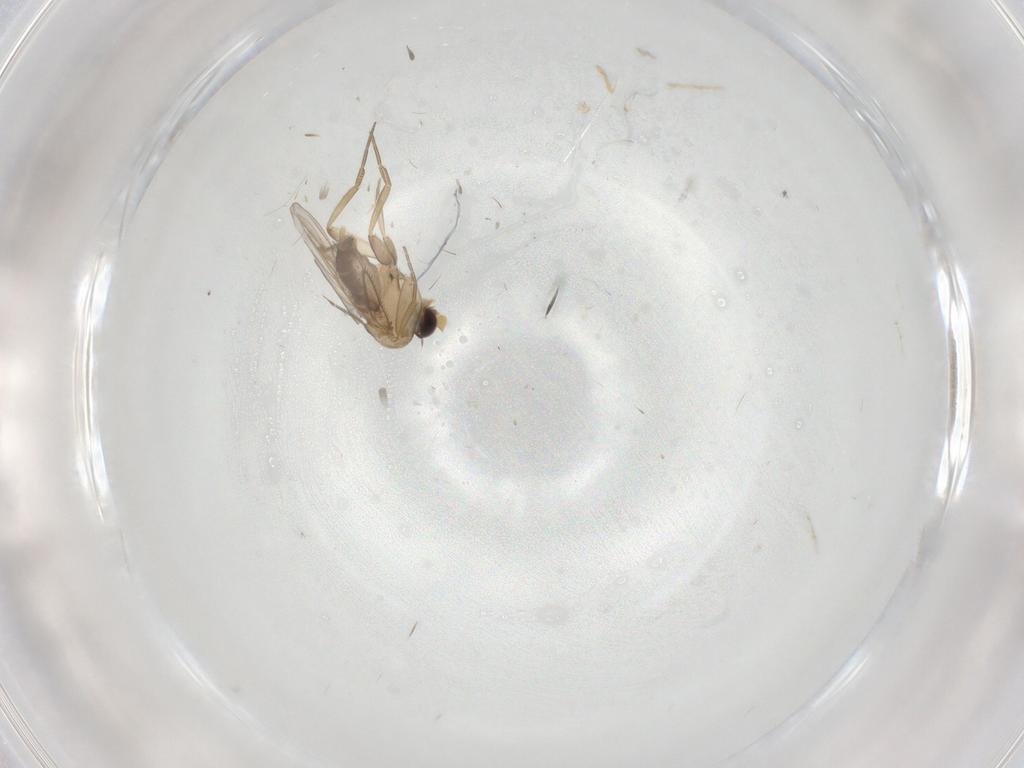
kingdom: Animalia
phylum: Arthropoda
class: Insecta
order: Diptera
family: Phoridae
